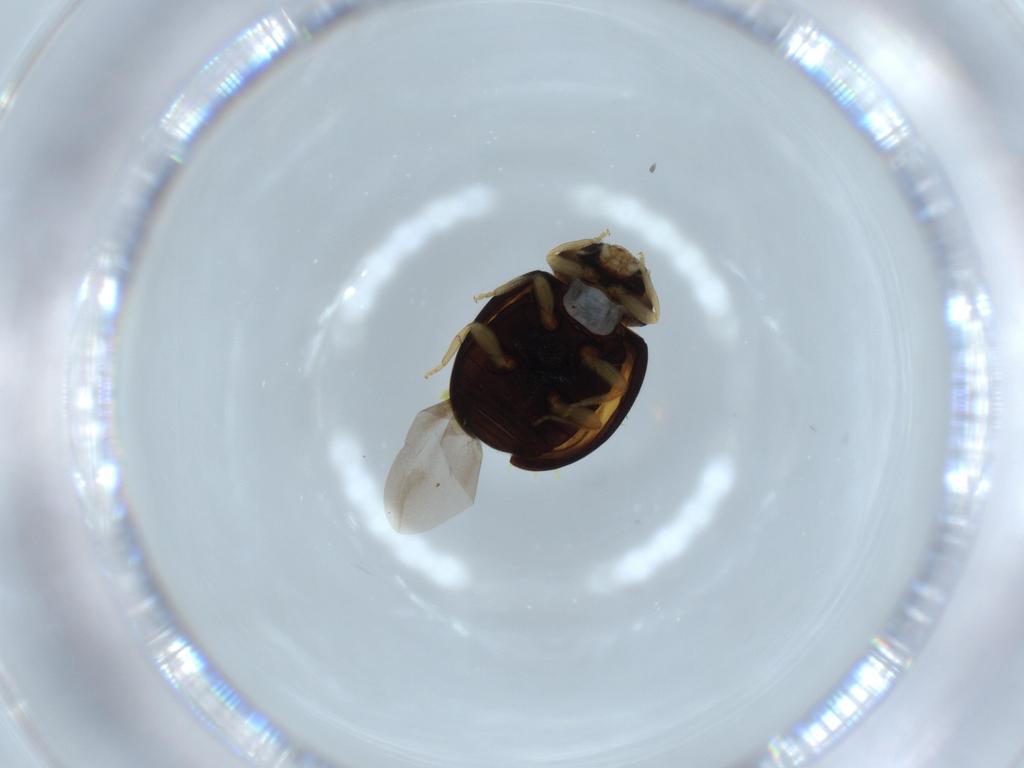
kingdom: Animalia
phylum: Arthropoda
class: Insecta
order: Coleoptera
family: Coccinellidae
